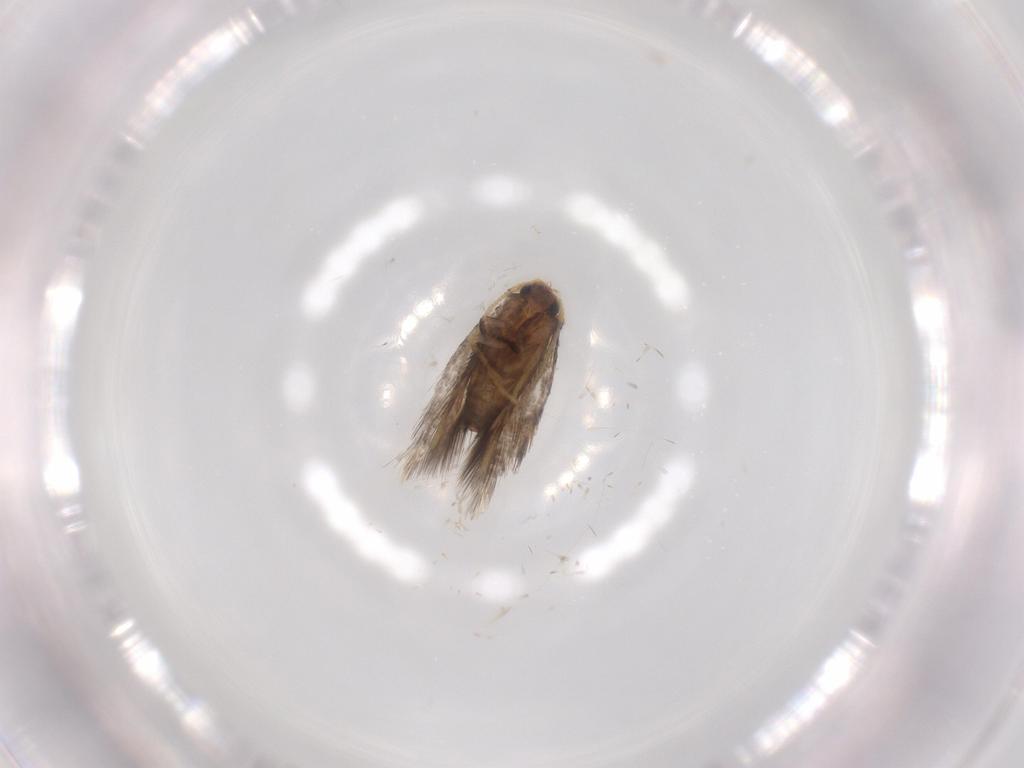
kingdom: Animalia
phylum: Arthropoda
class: Insecta
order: Lepidoptera
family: Nepticulidae
